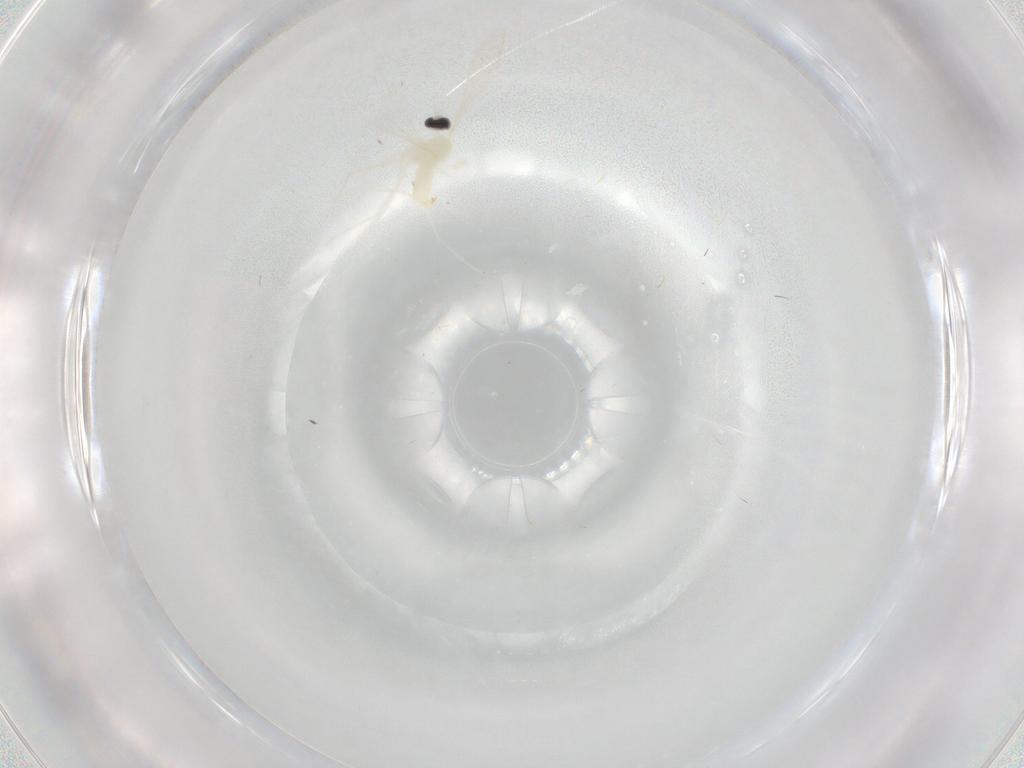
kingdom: Animalia
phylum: Arthropoda
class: Insecta
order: Diptera
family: Cecidomyiidae
